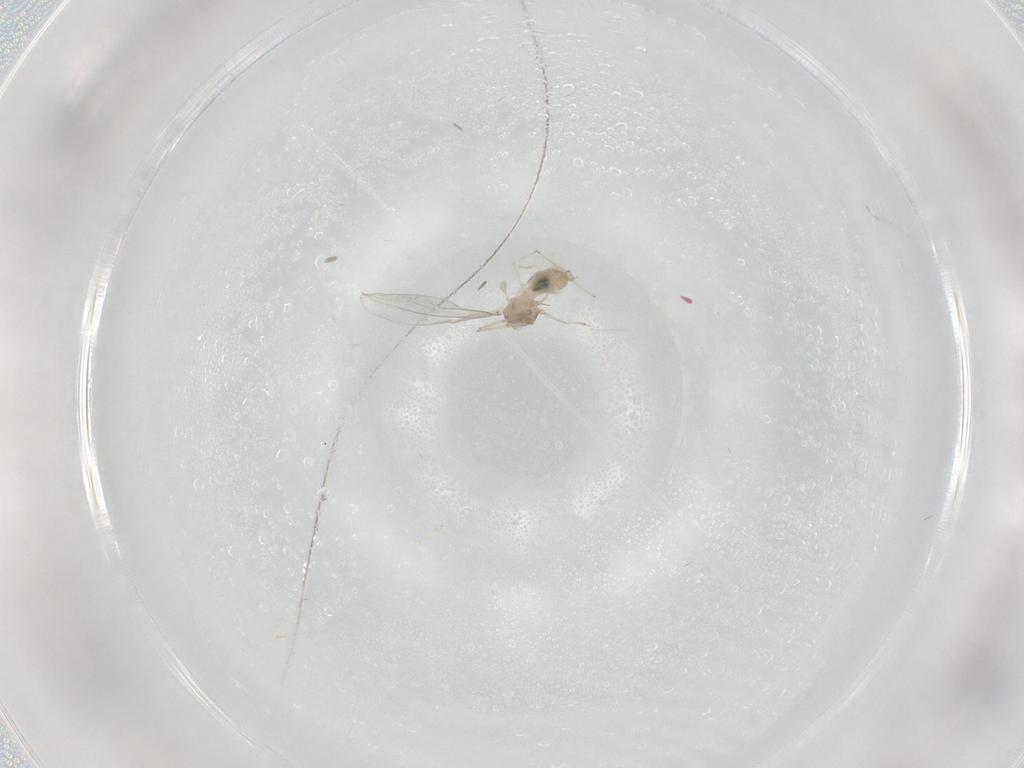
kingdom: Animalia
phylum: Arthropoda
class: Insecta
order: Diptera
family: Cecidomyiidae
